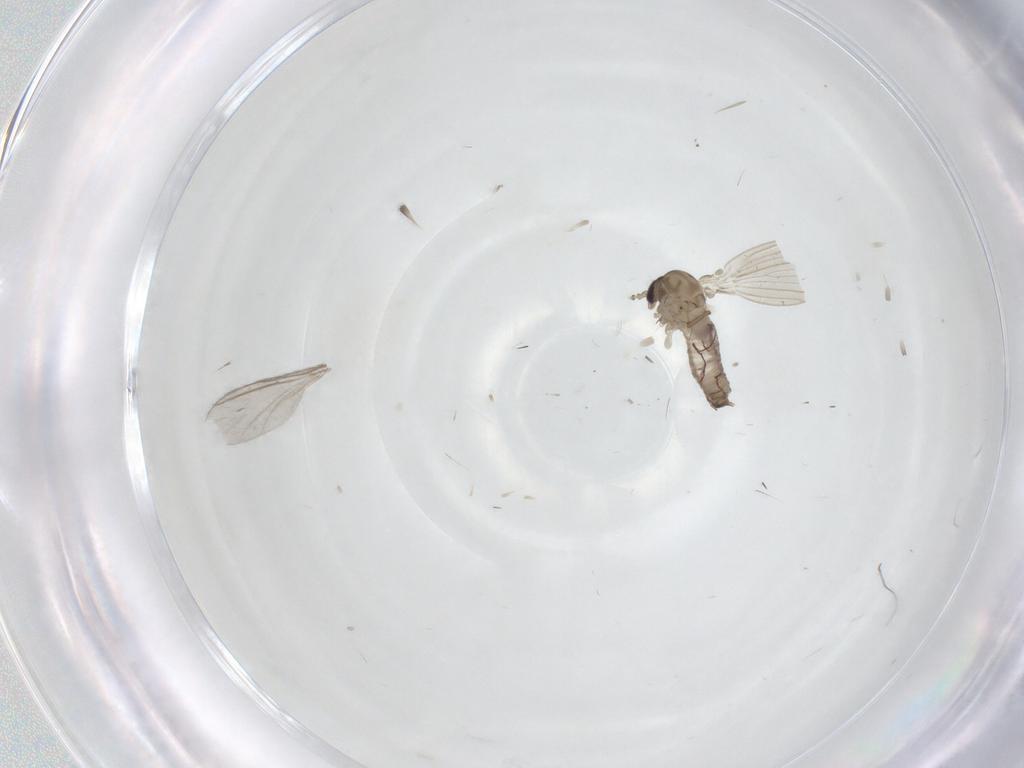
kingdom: Animalia
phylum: Arthropoda
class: Insecta
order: Diptera
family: Psychodidae
